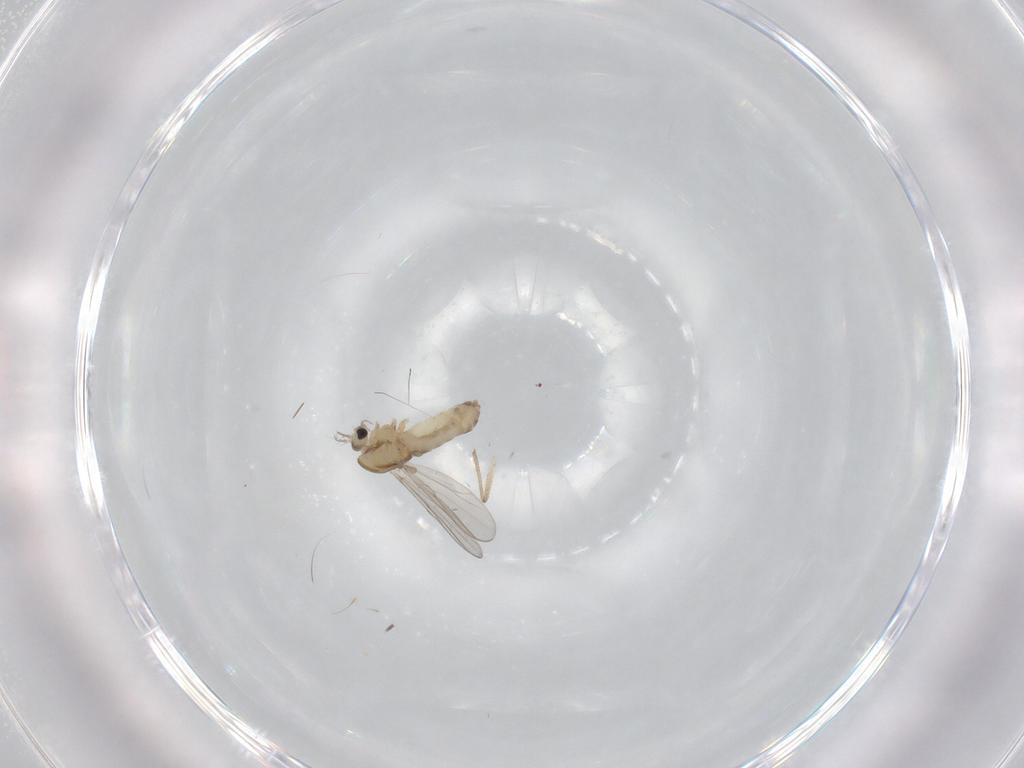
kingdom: Animalia
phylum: Arthropoda
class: Insecta
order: Diptera
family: Chironomidae
